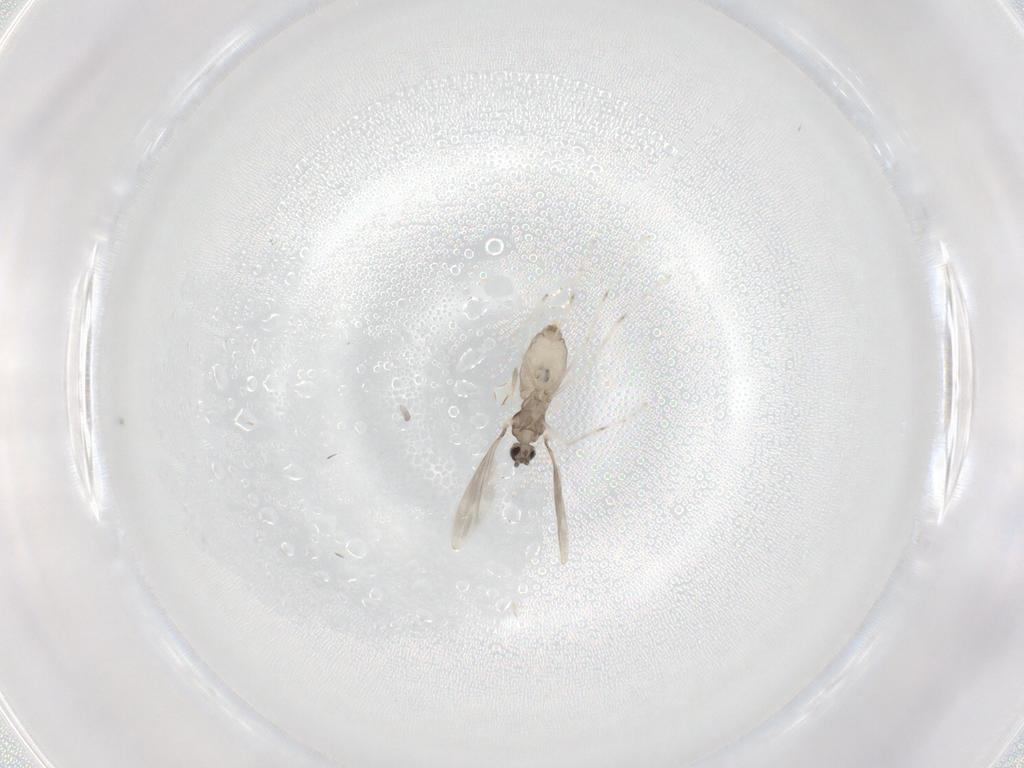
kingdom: Animalia
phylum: Arthropoda
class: Insecta
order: Diptera
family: Cecidomyiidae
